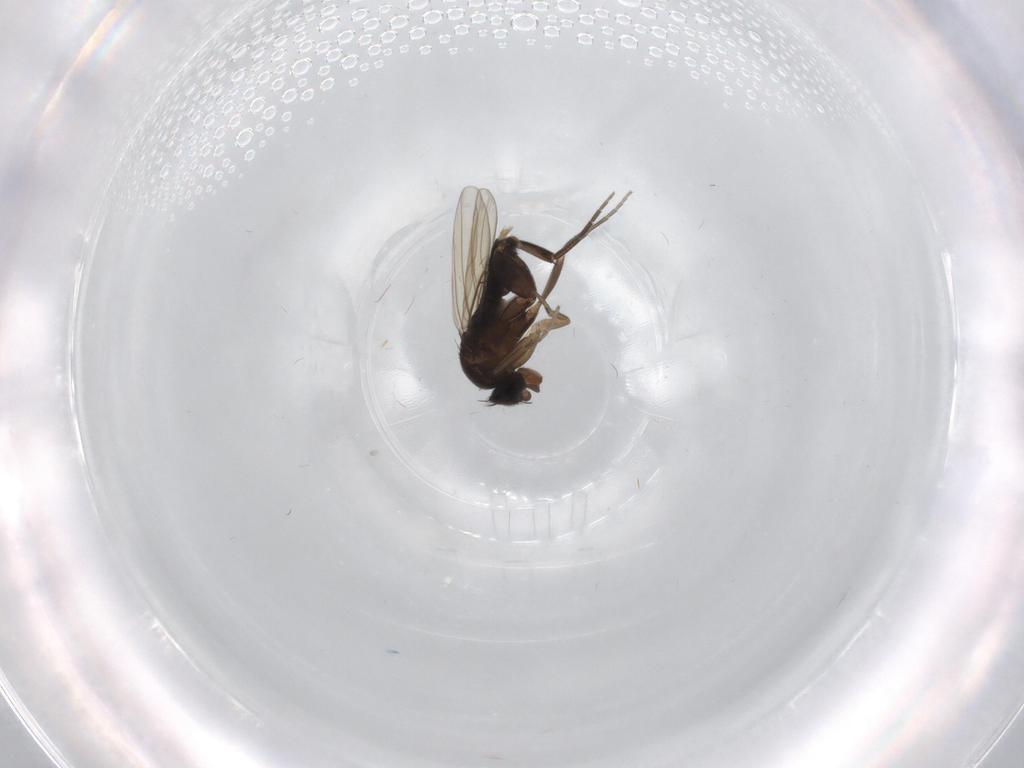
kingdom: Animalia
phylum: Arthropoda
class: Insecta
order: Diptera
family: Phoridae
